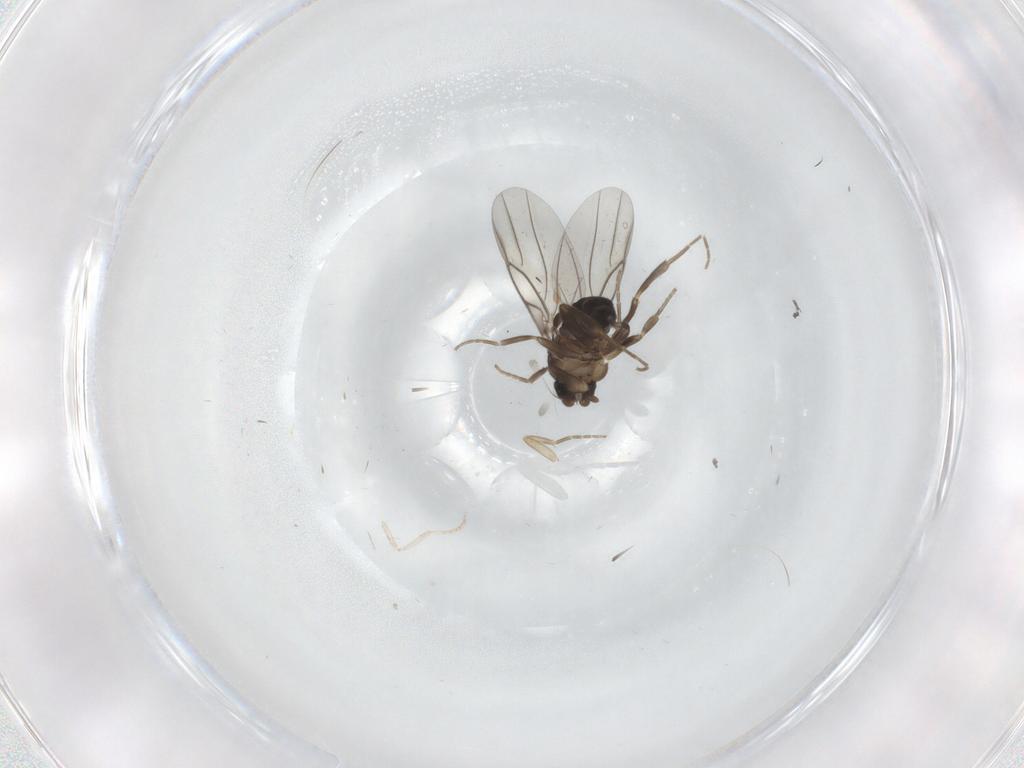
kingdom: Animalia
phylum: Arthropoda
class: Insecta
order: Diptera
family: Phoridae
